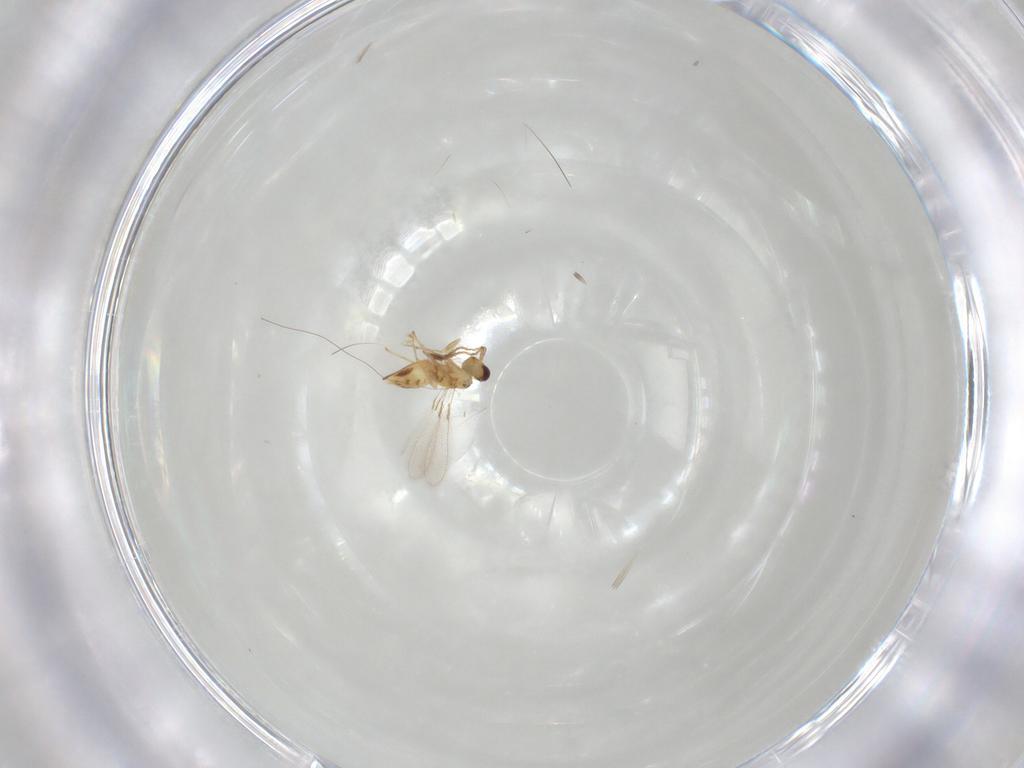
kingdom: Animalia
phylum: Arthropoda
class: Insecta
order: Hymenoptera
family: Mymaridae
